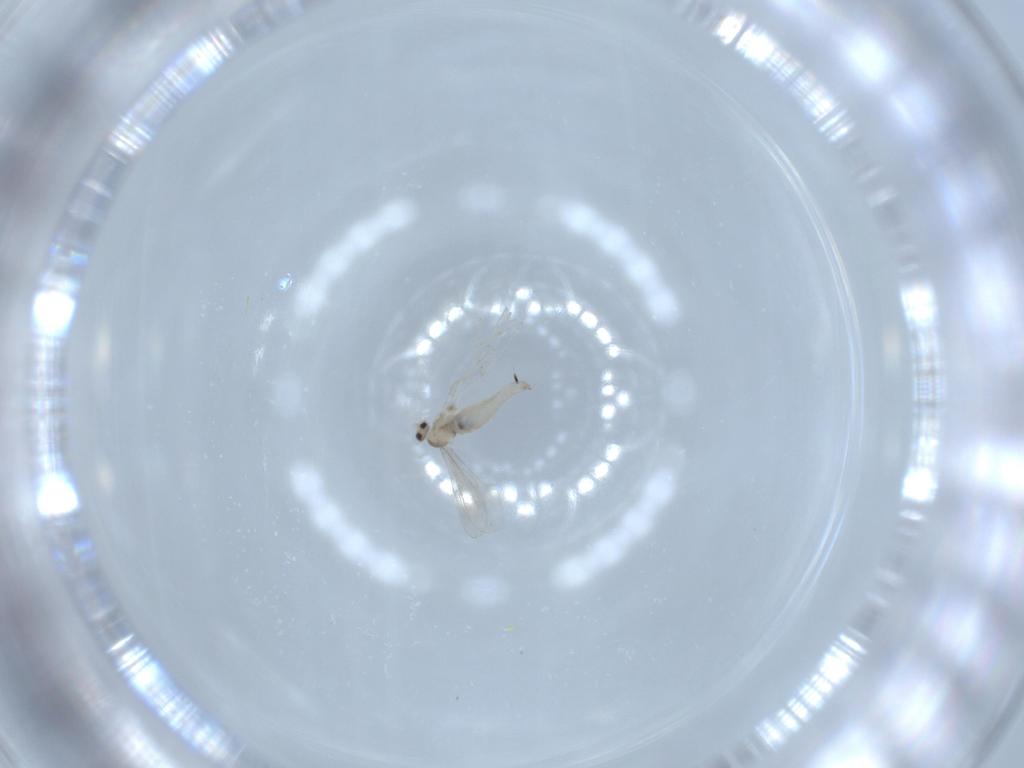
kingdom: Animalia
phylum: Arthropoda
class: Insecta
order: Diptera
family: Cecidomyiidae
